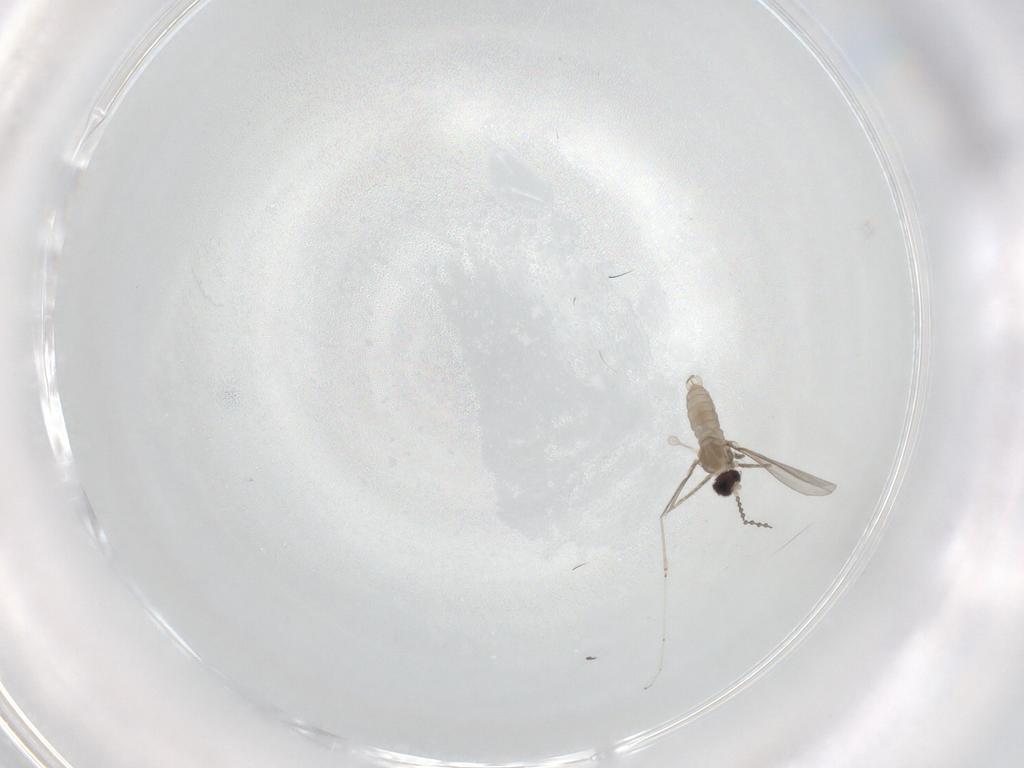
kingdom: Animalia
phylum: Arthropoda
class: Insecta
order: Diptera
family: Cecidomyiidae
